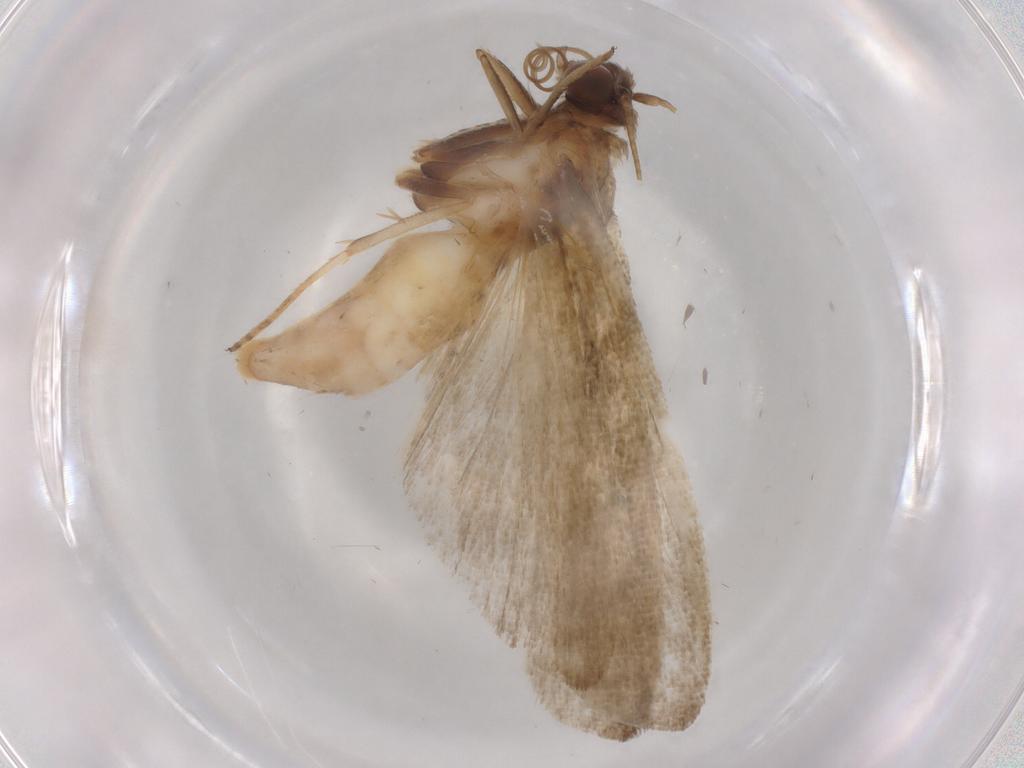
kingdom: Animalia
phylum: Arthropoda
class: Insecta
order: Lepidoptera
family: Noctuidae
